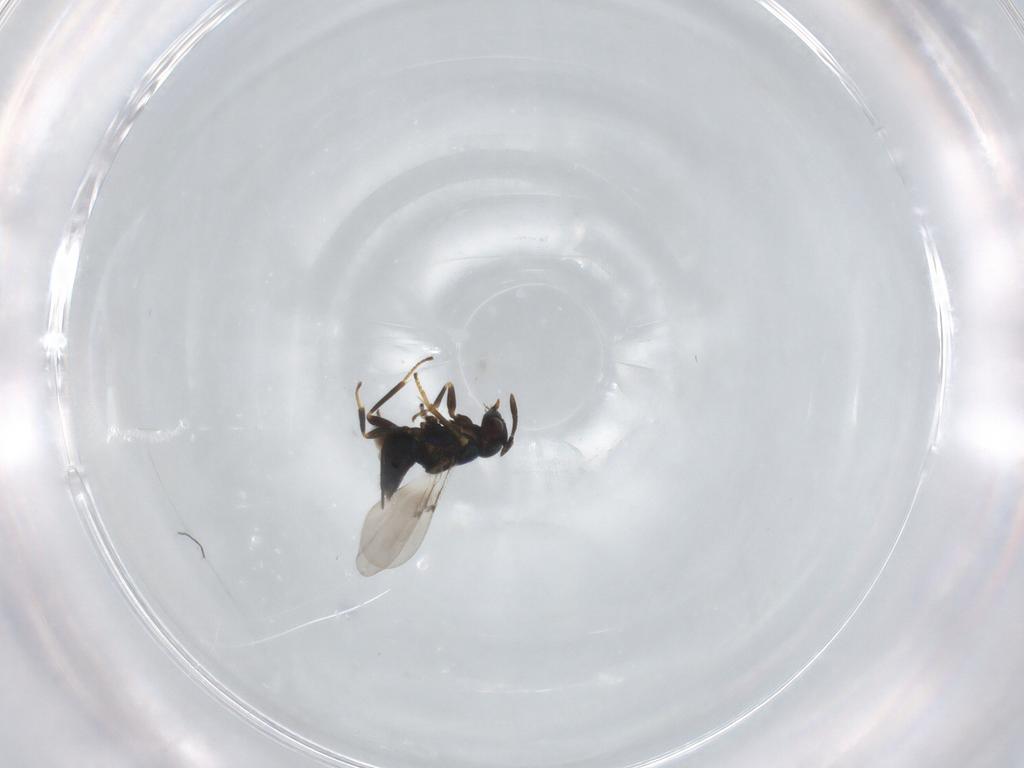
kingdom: Animalia
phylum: Arthropoda
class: Insecta
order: Hymenoptera
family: Encyrtidae
